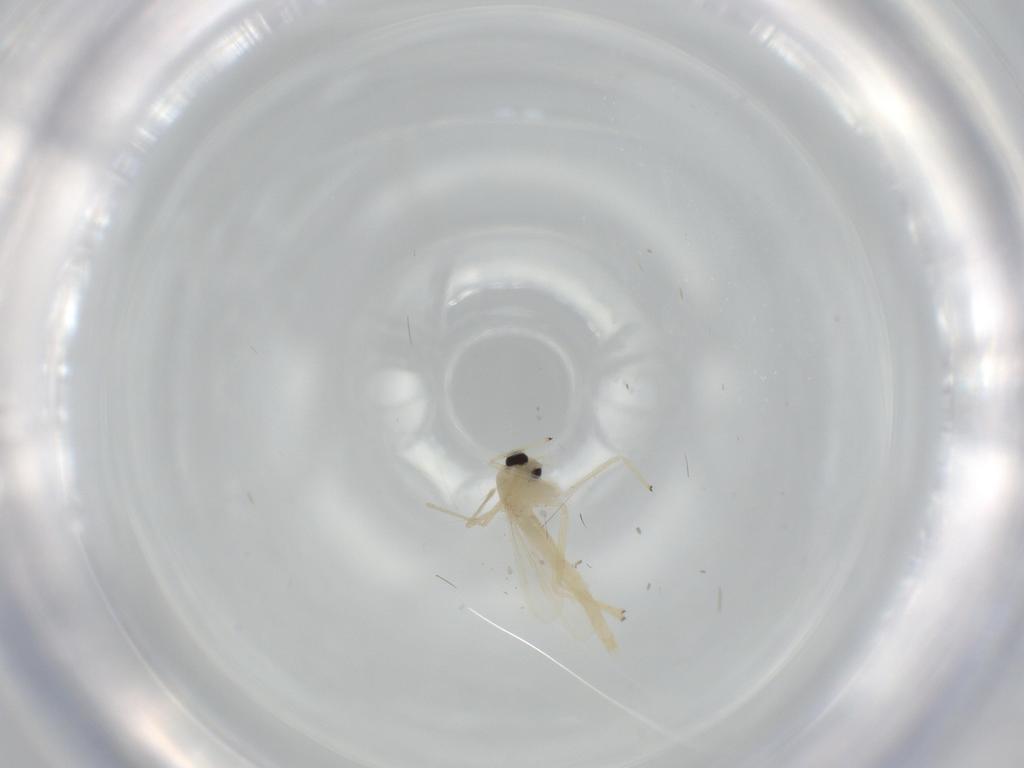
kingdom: Animalia
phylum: Arthropoda
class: Insecta
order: Diptera
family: Chironomidae
